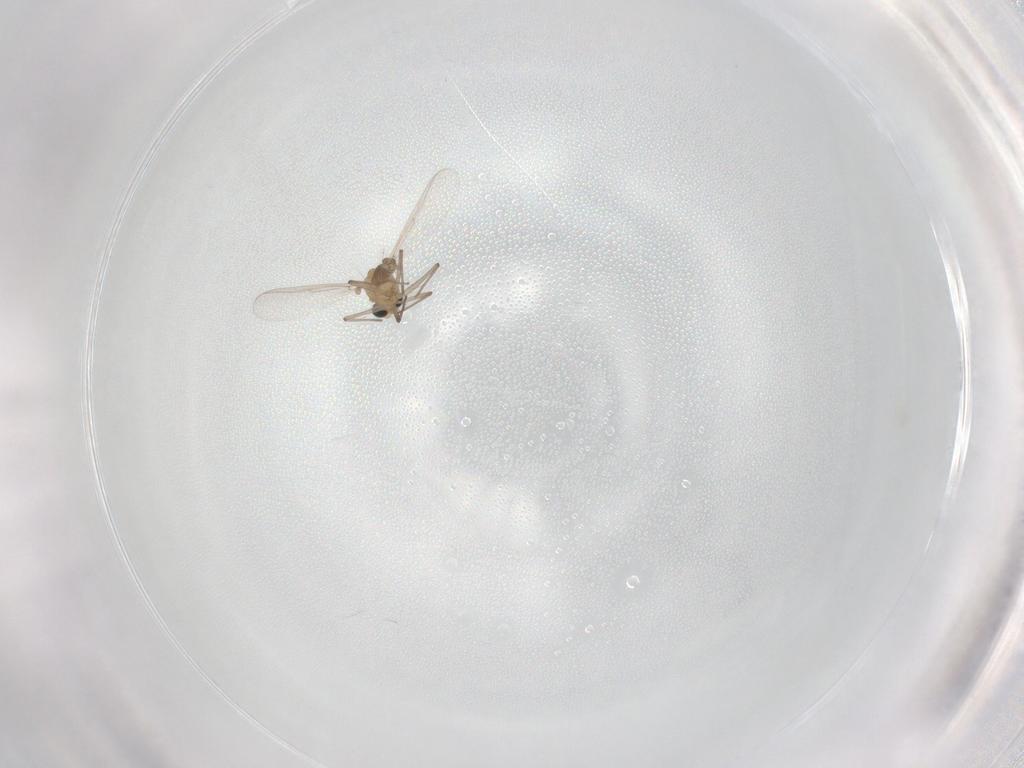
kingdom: Animalia
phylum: Arthropoda
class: Insecta
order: Diptera
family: Chironomidae
